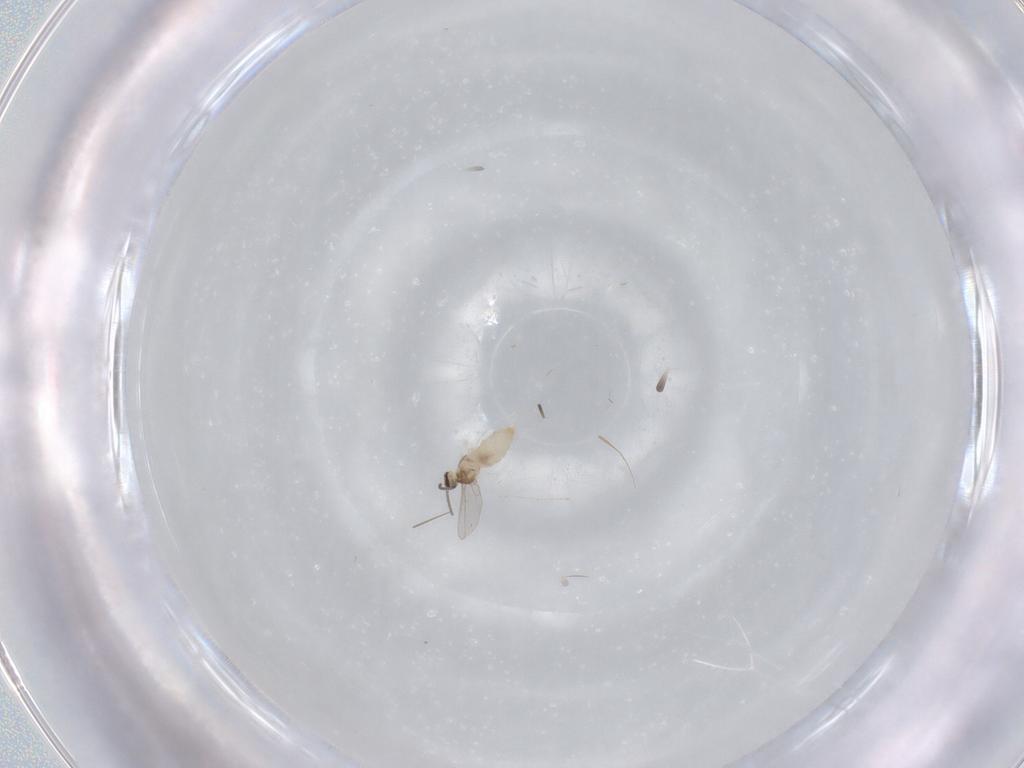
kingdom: Animalia
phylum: Arthropoda
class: Insecta
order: Diptera
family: Cecidomyiidae
